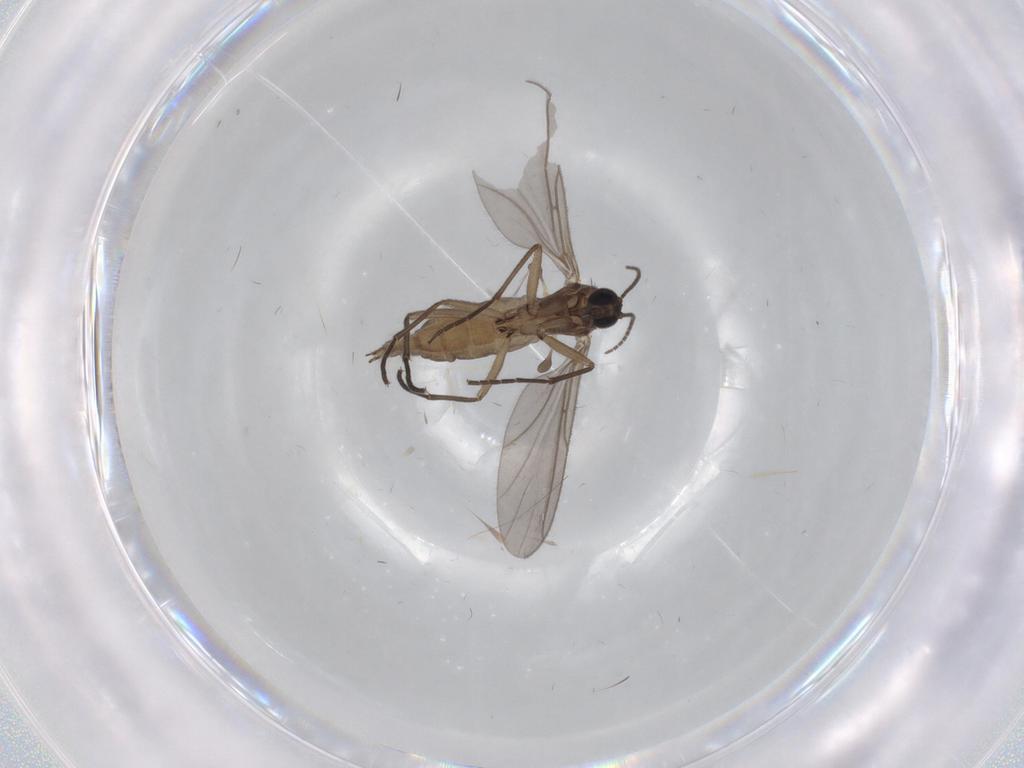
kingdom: Animalia
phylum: Arthropoda
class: Insecta
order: Diptera
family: Sciaridae
